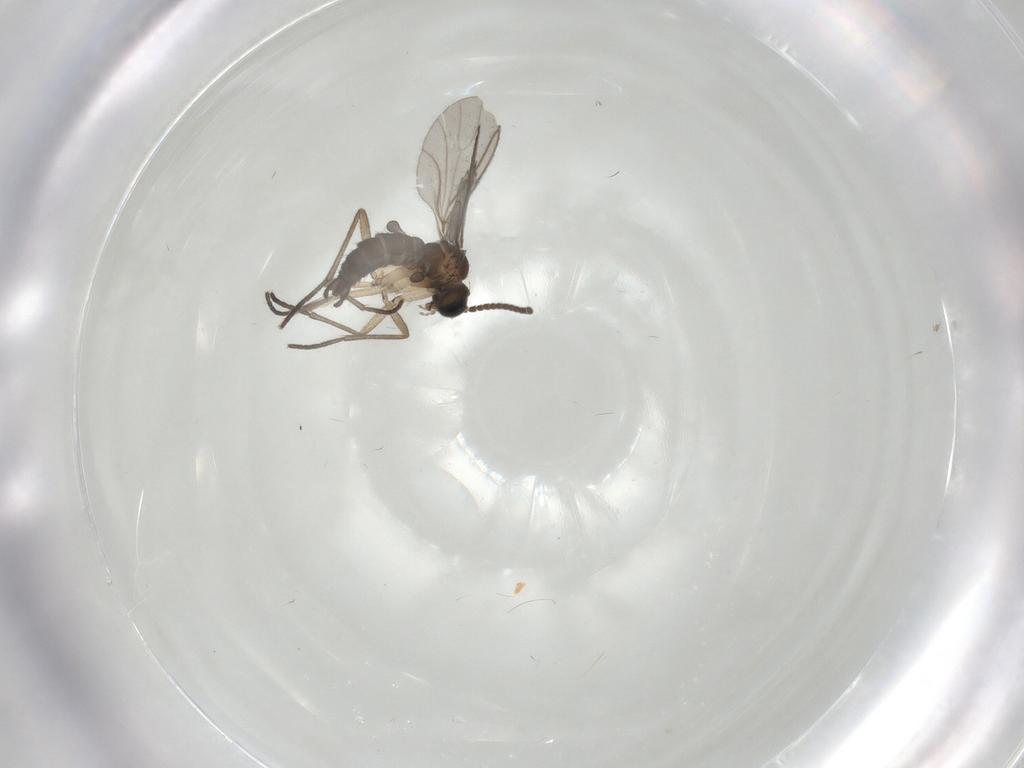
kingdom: Animalia
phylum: Arthropoda
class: Insecta
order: Diptera
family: Sciaridae
